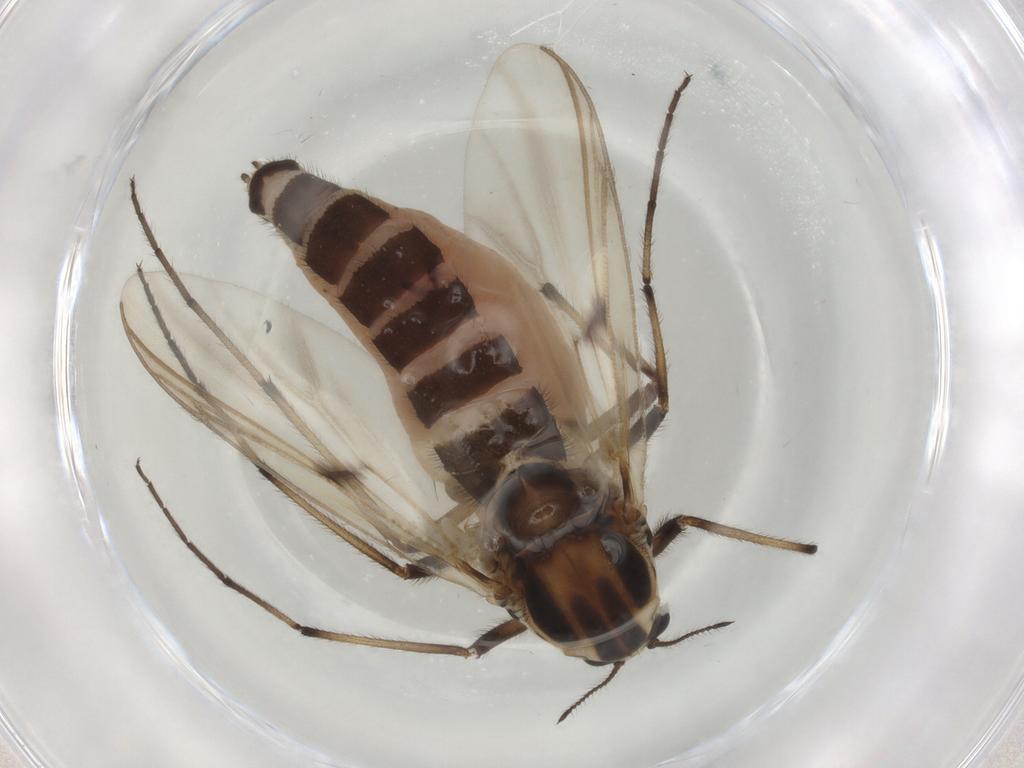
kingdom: Animalia
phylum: Arthropoda
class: Insecta
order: Diptera
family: Chironomidae
